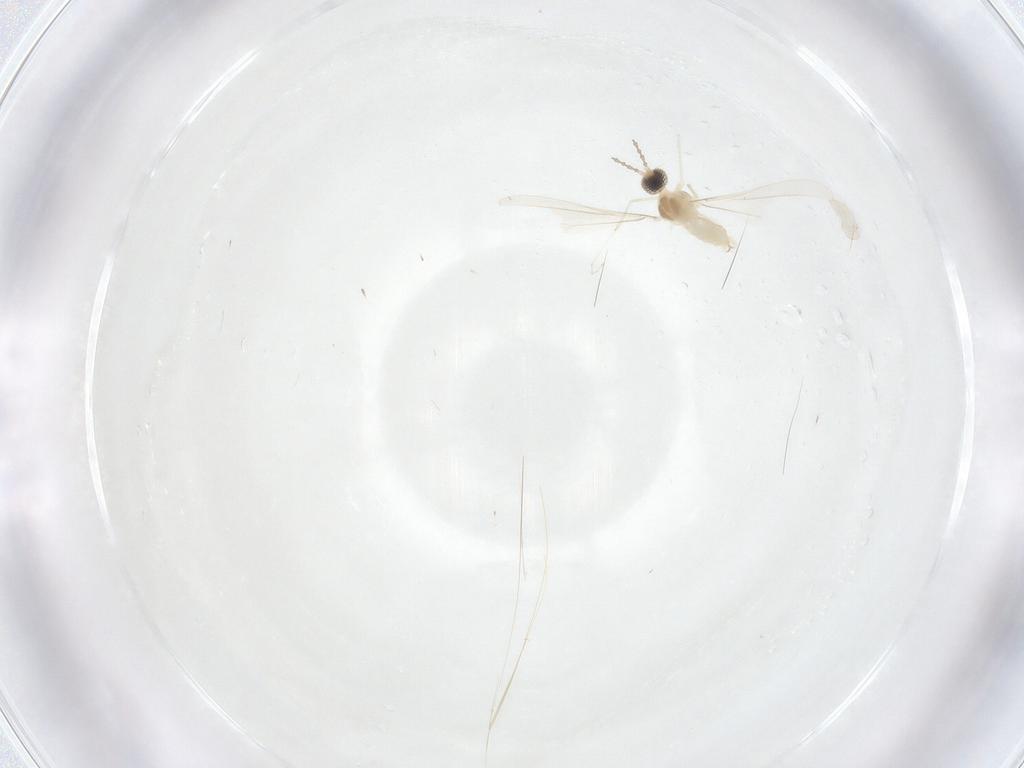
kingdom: Animalia
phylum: Arthropoda
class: Insecta
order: Diptera
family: Cecidomyiidae
